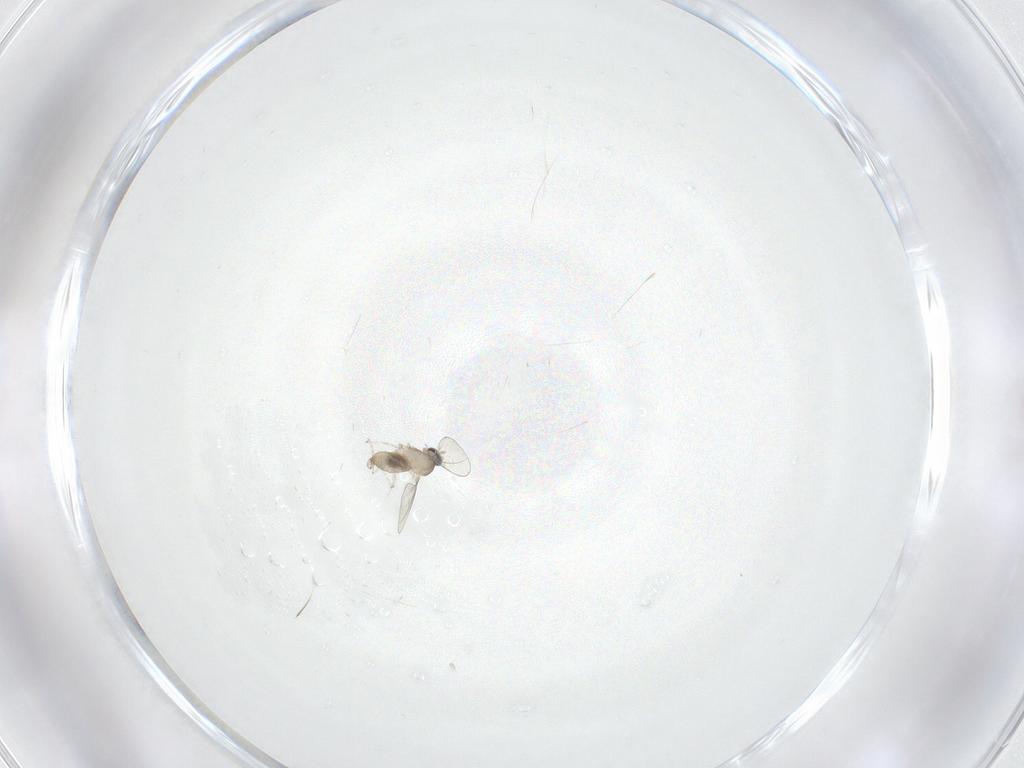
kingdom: Animalia
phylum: Arthropoda
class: Insecta
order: Diptera
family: Cecidomyiidae
